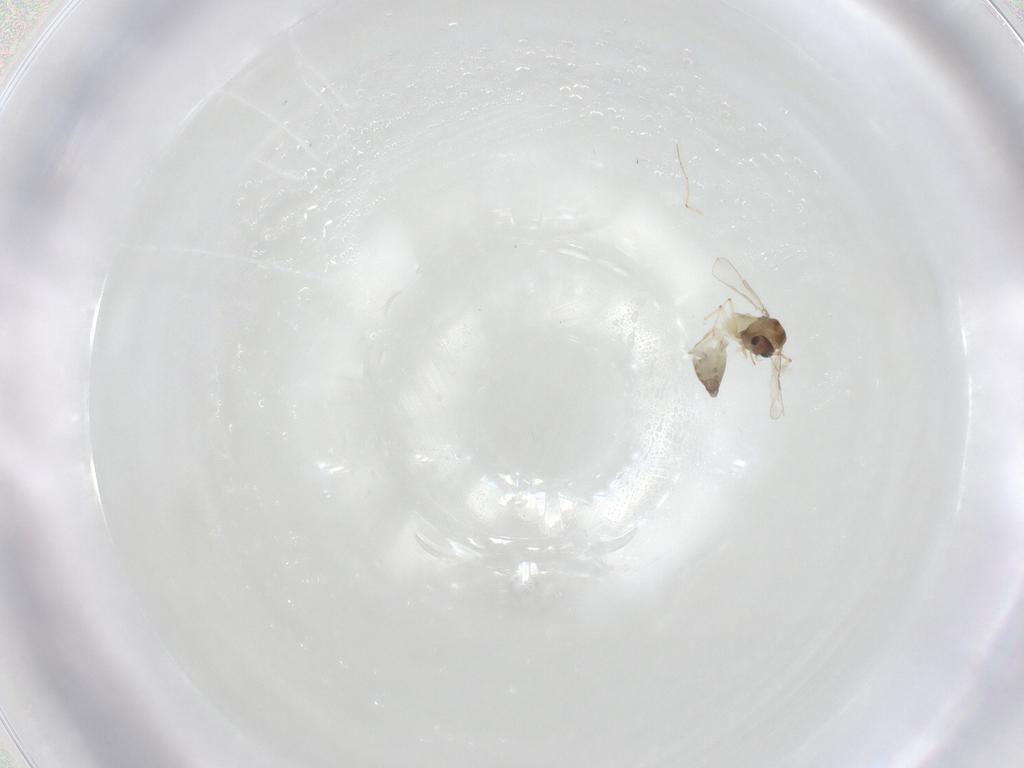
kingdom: Animalia
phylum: Arthropoda
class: Insecta
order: Diptera
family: Chironomidae
